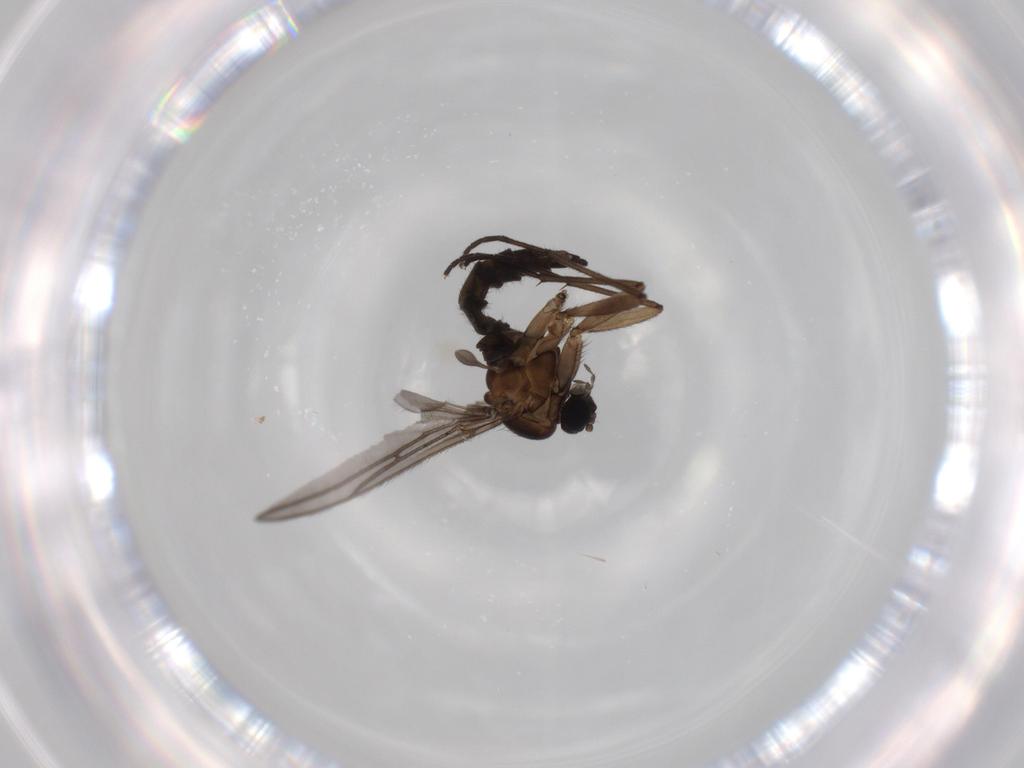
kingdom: Animalia
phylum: Arthropoda
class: Insecta
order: Diptera
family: Sciaridae
